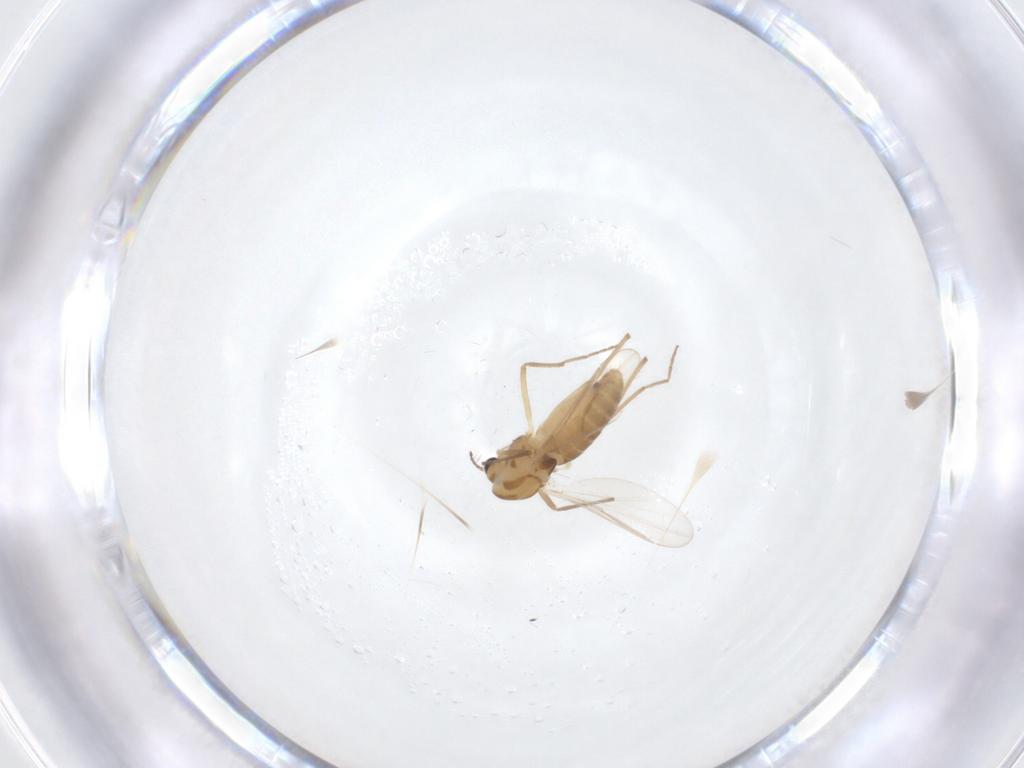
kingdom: Animalia
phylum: Arthropoda
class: Insecta
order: Diptera
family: Chironomidae
